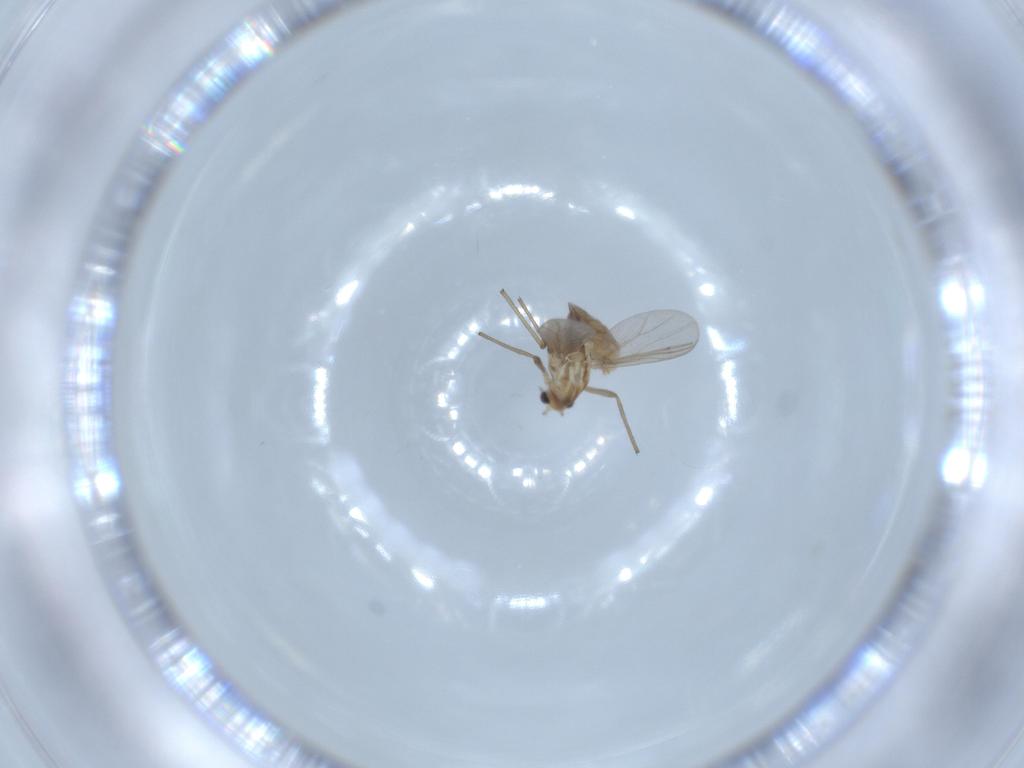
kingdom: Animalia
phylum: Arthropoda
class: Insecta
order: Diptera
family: Chironomidae
